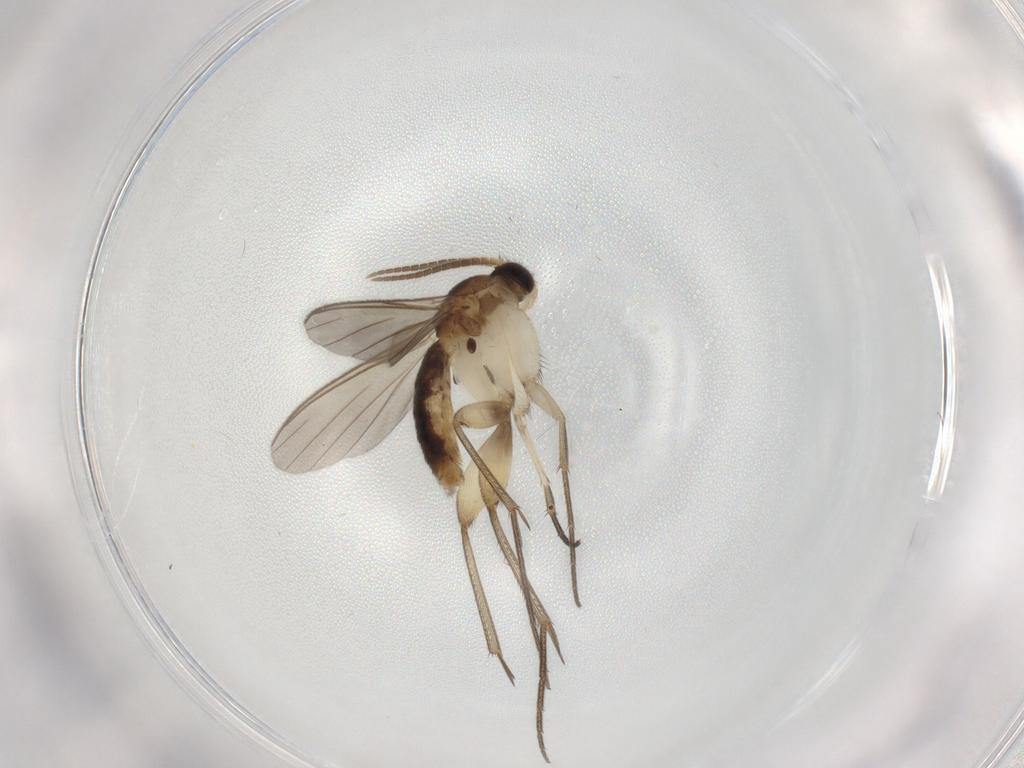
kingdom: Animalia
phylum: Arthropoda
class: Insecta
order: Diptera
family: Mycetophilidae
